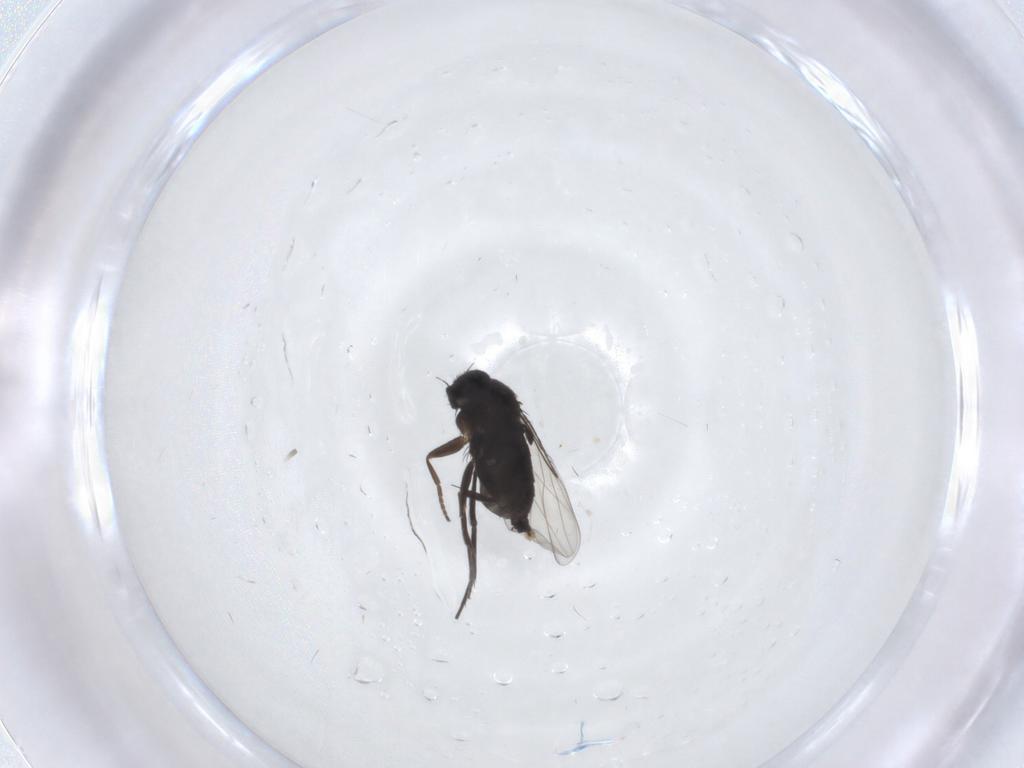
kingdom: Animalia
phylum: Arthropoda
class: Insecta
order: Diptera
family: Phoridae
